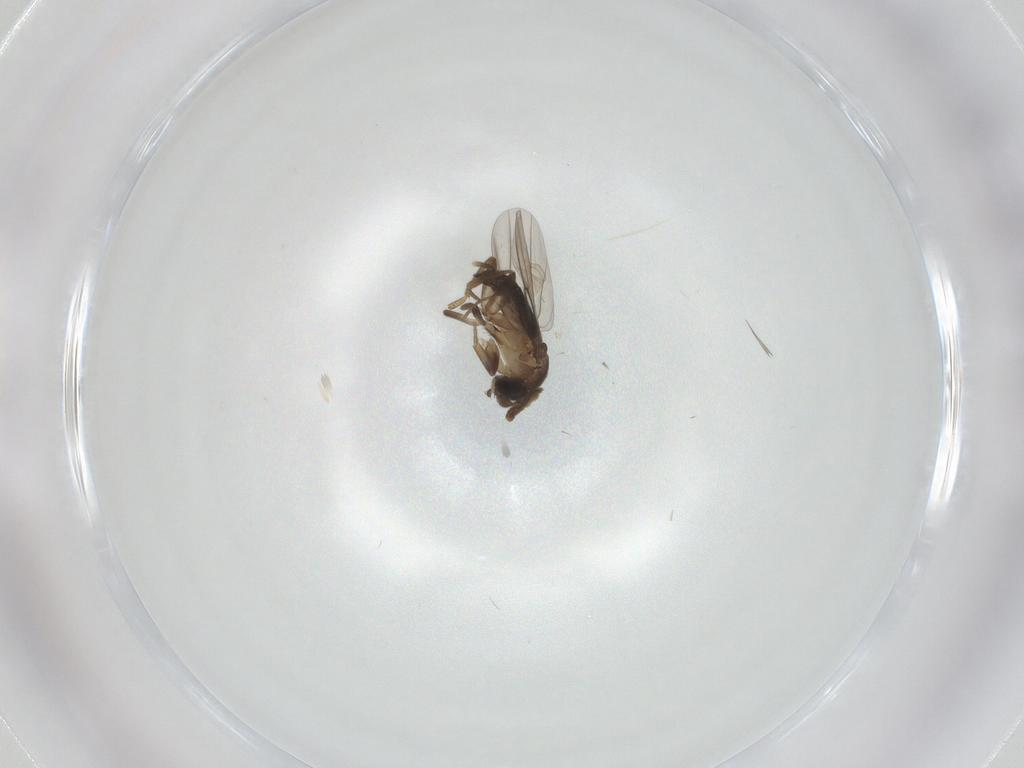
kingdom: Animalia
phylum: Arthropoda
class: Insecta
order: Diptera
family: Phoridae
